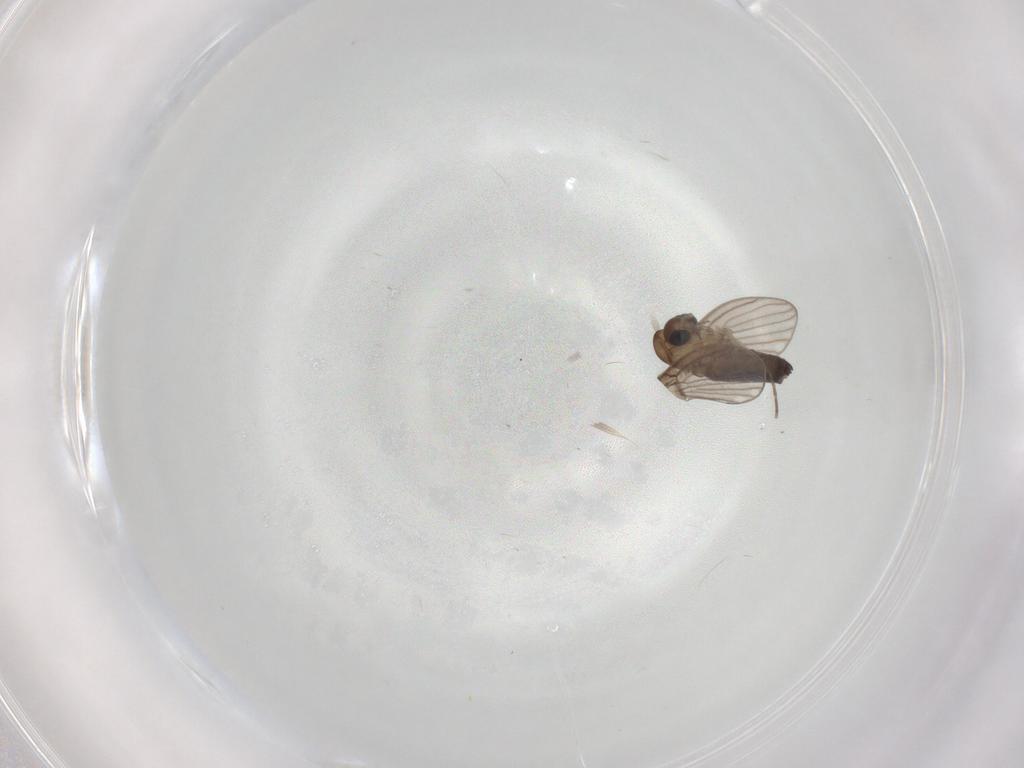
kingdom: Animalia
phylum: Arthropoda
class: Insecta
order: Diptera
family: Psychodidae
